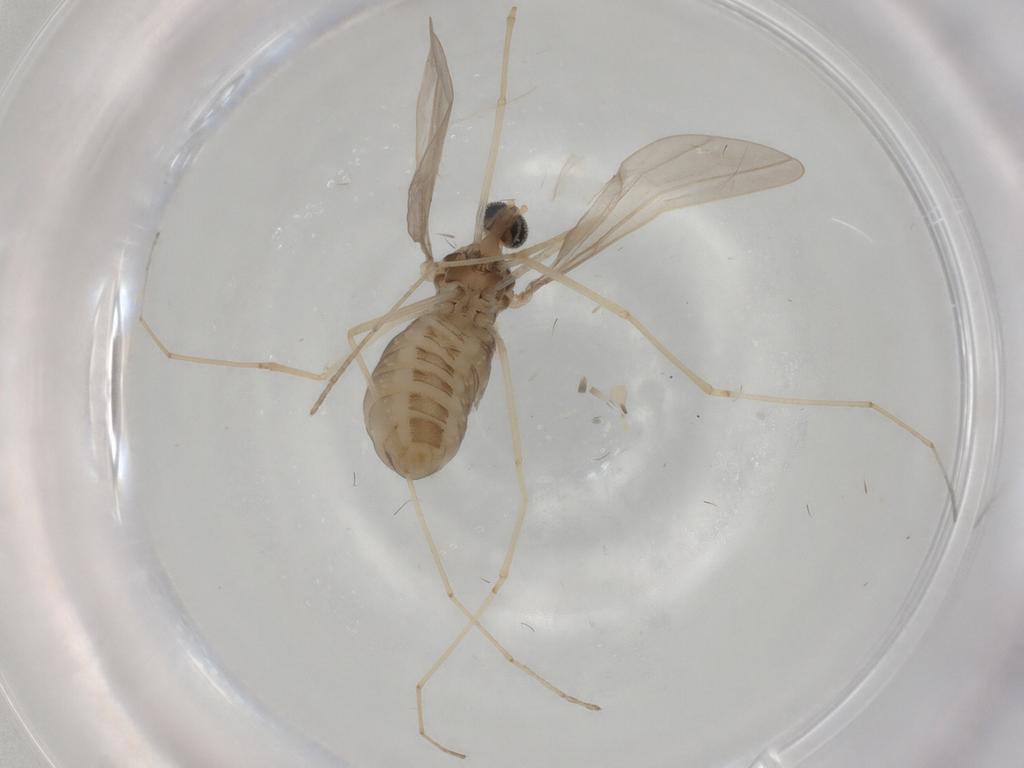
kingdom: Animalia
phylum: Arthropoda
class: Insecta
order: Diptera
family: Cecidomyiidae
